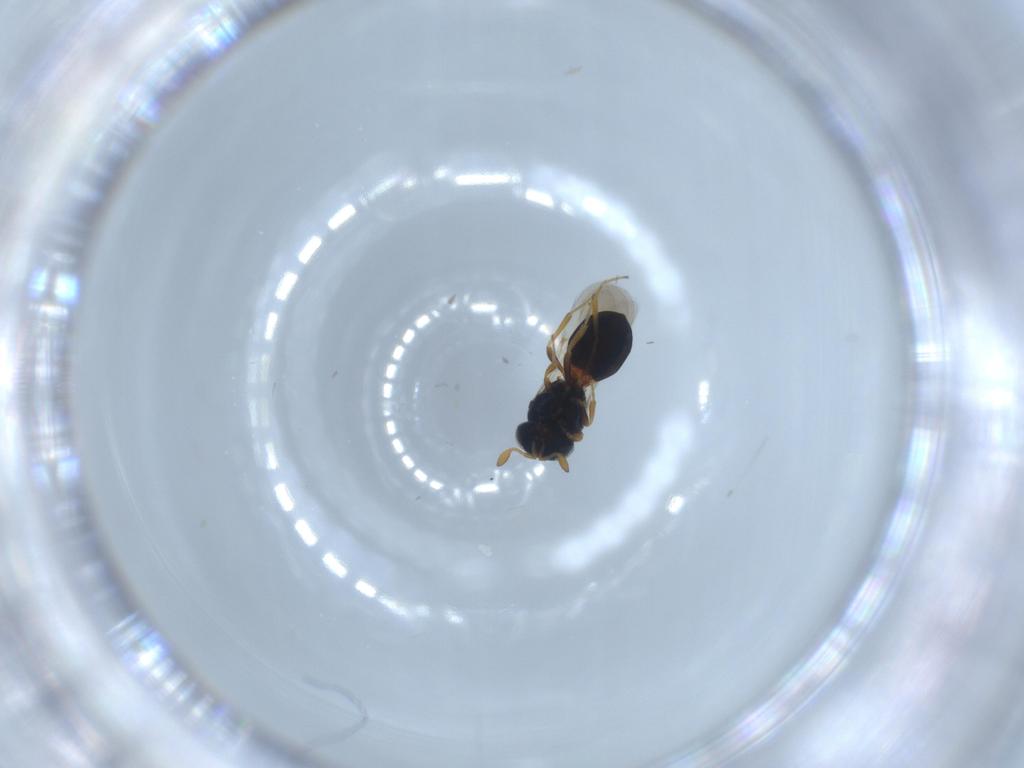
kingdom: Animalia
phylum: Arthropoda
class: Insecta
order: Hymenoptera
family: Scelionidae
